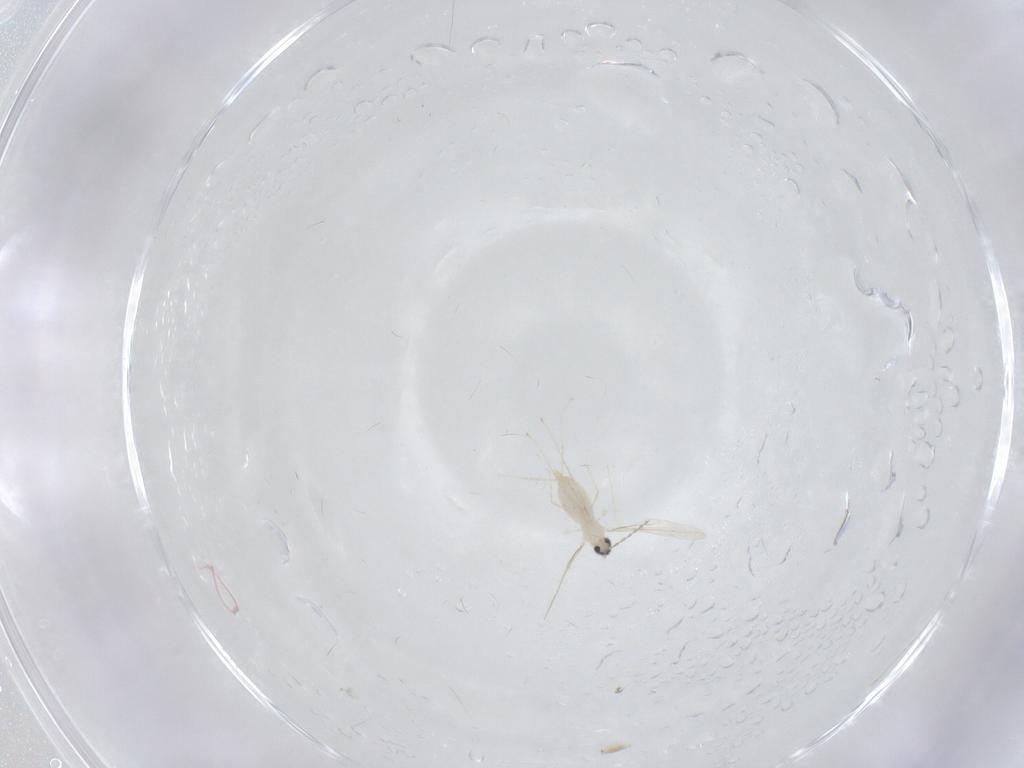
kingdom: Animalia
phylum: Arthropoda
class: Insecta
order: Diptera
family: Cecidomyiidae
